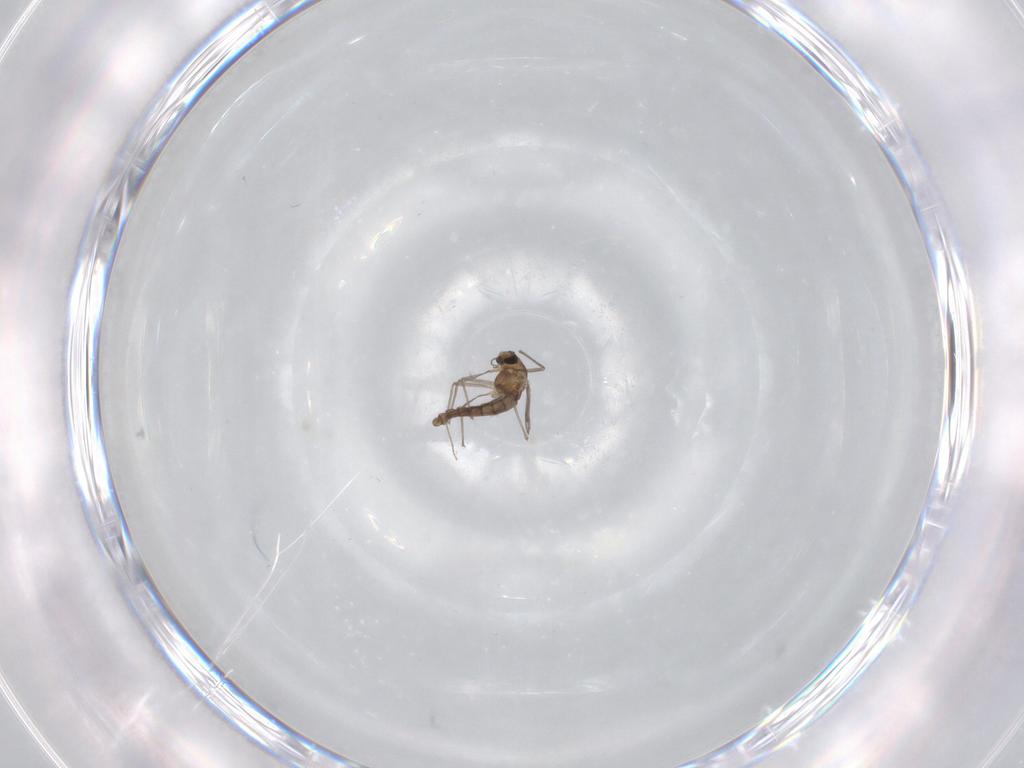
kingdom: Animalia
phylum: Arthropoda
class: Insecta
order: Diptera
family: Chironomidae
